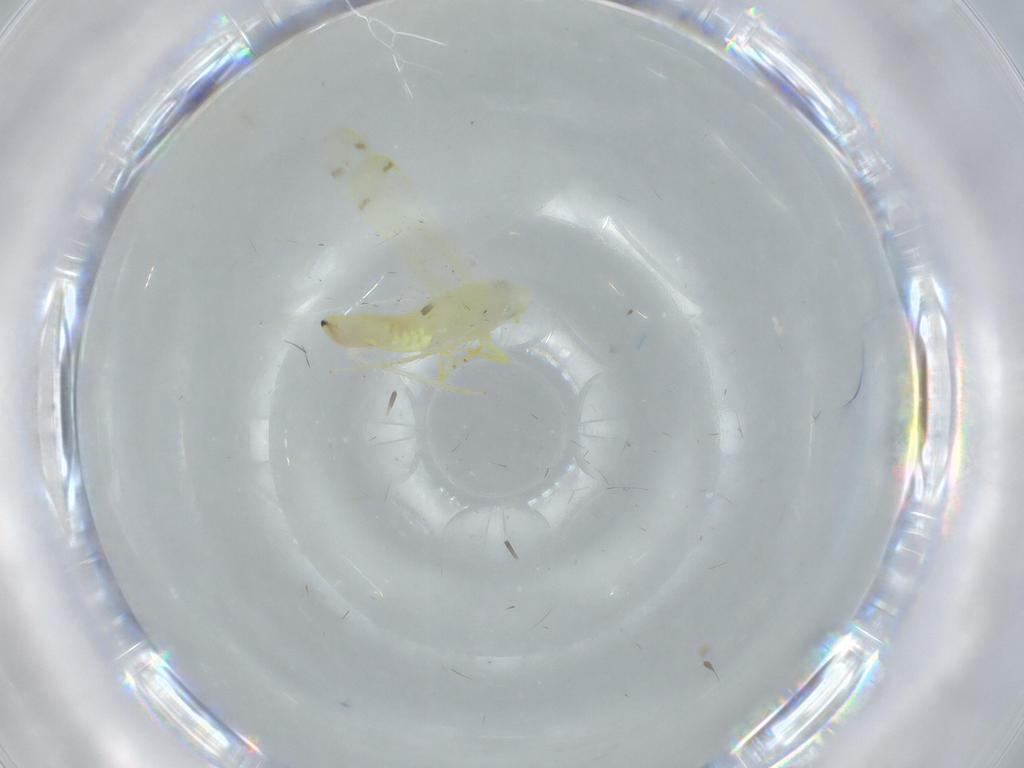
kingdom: Animalia
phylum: Arthropoda
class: Insecta
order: Hemiptera
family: Cicadellidae
